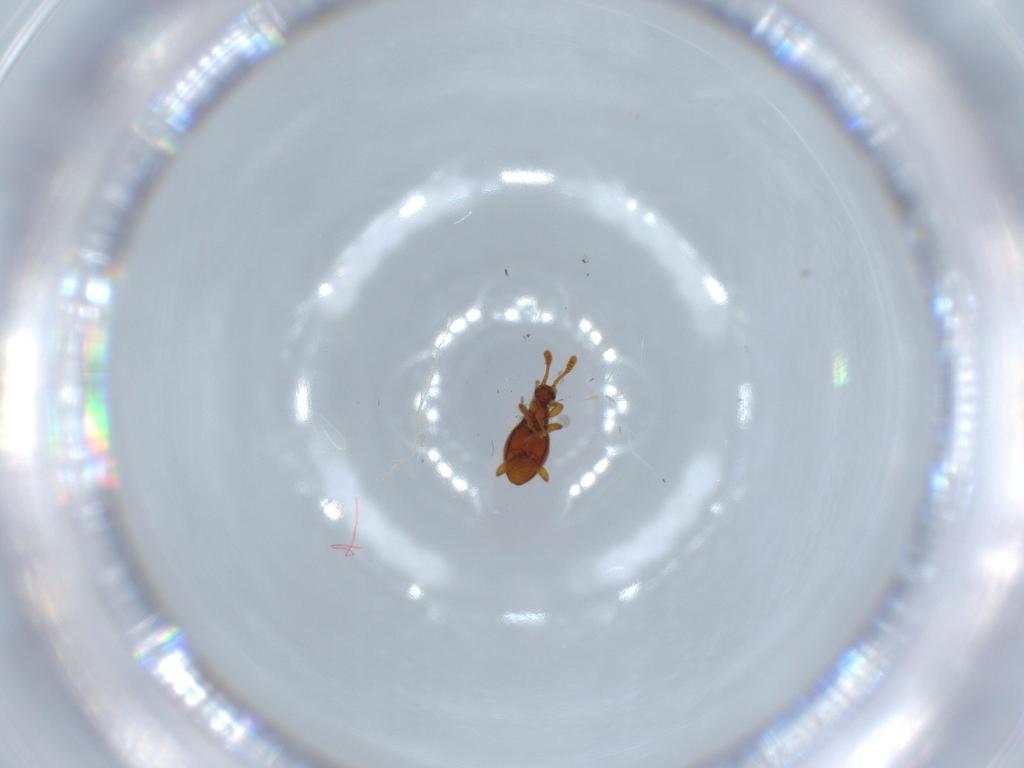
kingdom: Animalia
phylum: Arthropoda
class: Insecta
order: Coleoptera
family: Staphylinidae
